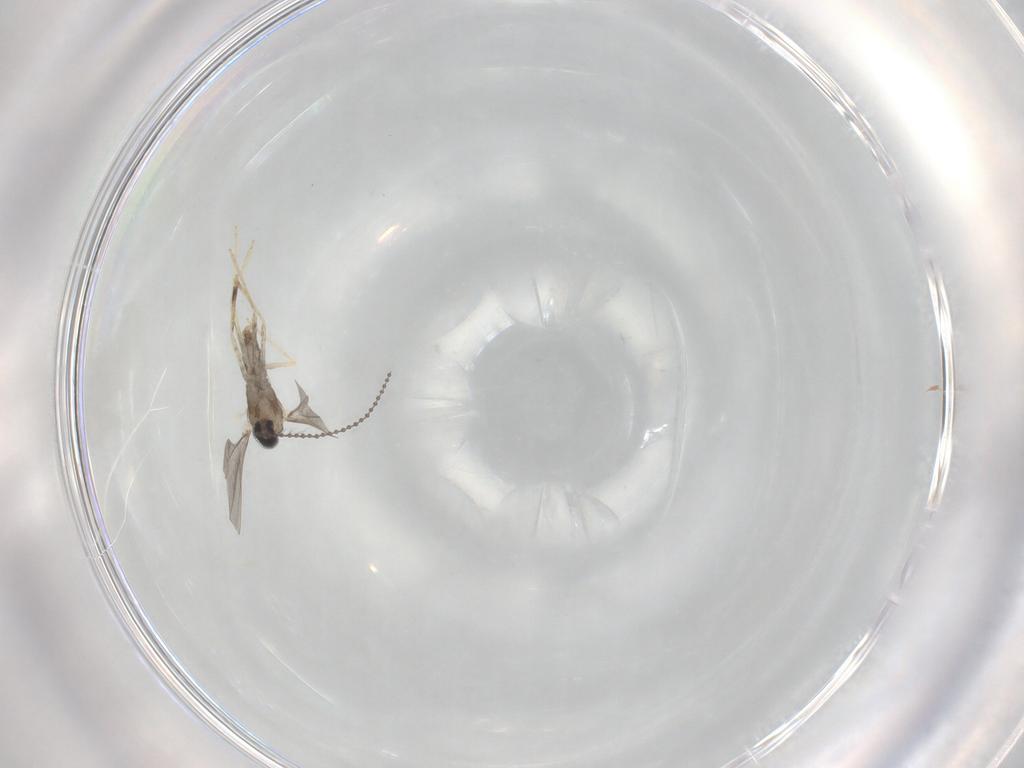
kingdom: Animalia
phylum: Arthropoda
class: Insecta
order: Diptera
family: Cecidomyiidae
